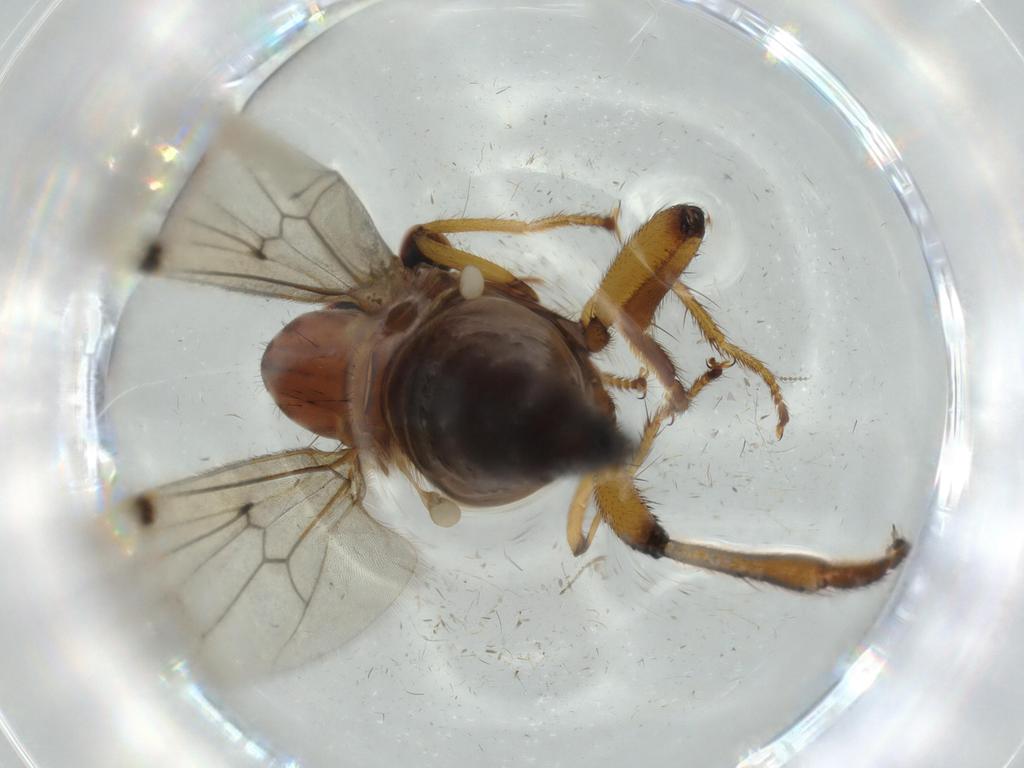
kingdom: Animalia
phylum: Arthropoda
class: Insecta
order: Diptera
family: Hybotidae
